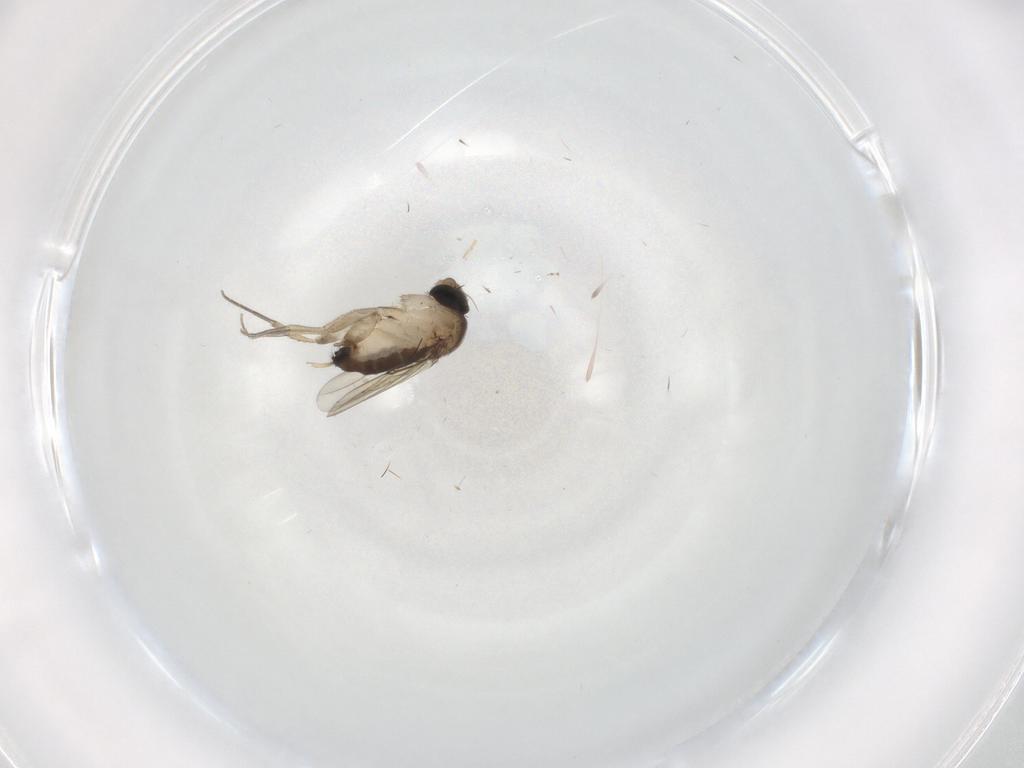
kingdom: Animalia
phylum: Arthropoda
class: Insecta
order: Diptera
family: Phoridae
